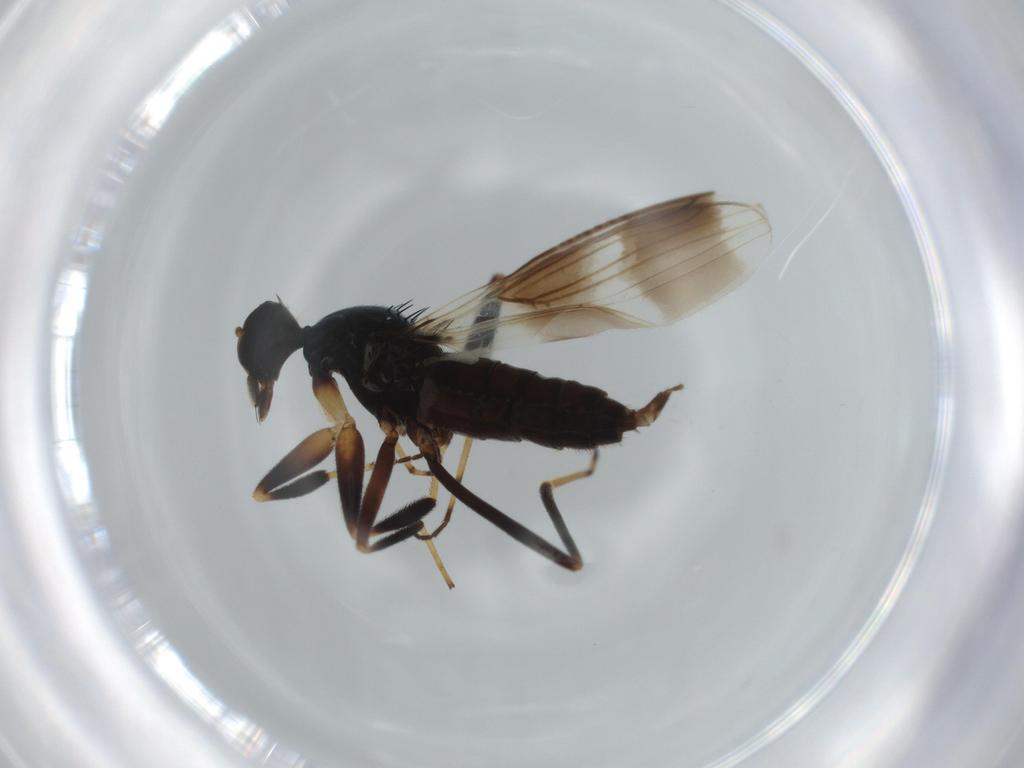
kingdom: Animalia
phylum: Arthropoda
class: Insecta
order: Diptera
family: Hybotidae
